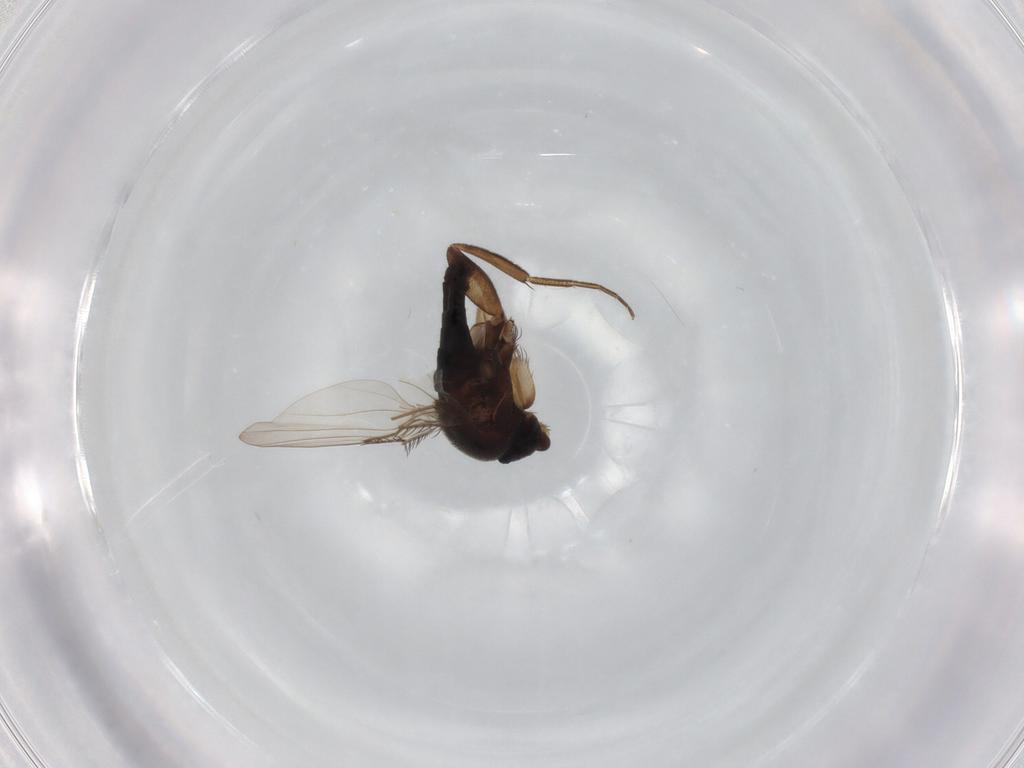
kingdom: Animalia
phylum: Arthropoda
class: Insecta
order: Diptera
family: Phoridae
